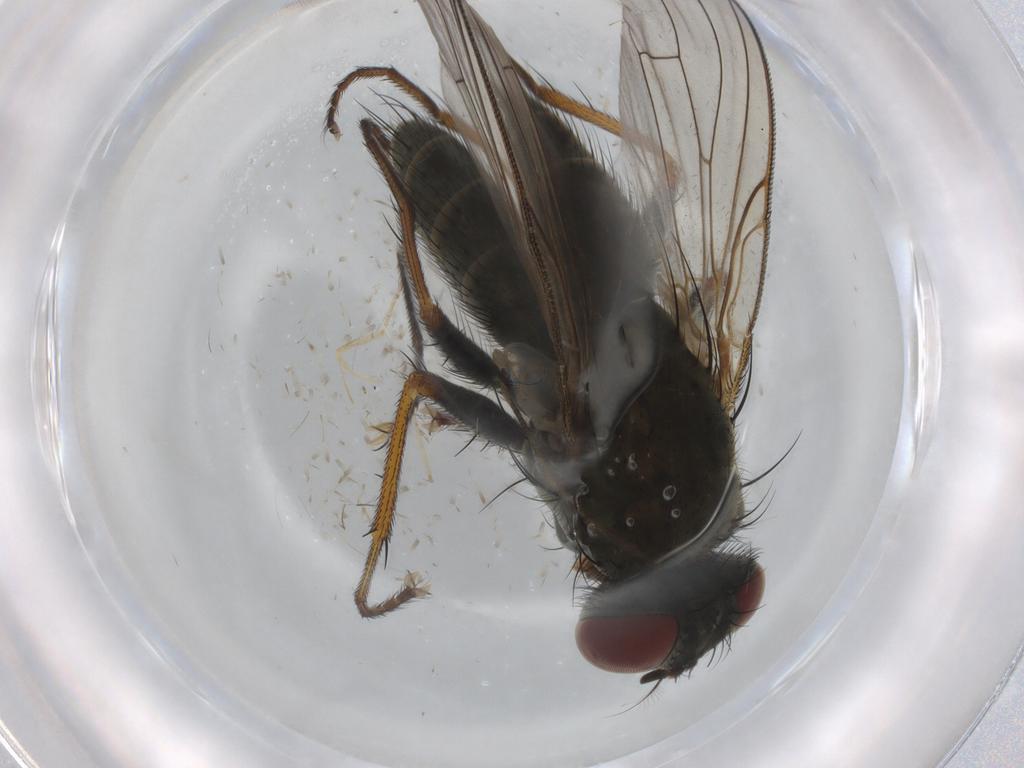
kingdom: Animalia
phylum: Arthropoda
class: Insecta
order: Diptera
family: Muscidae
